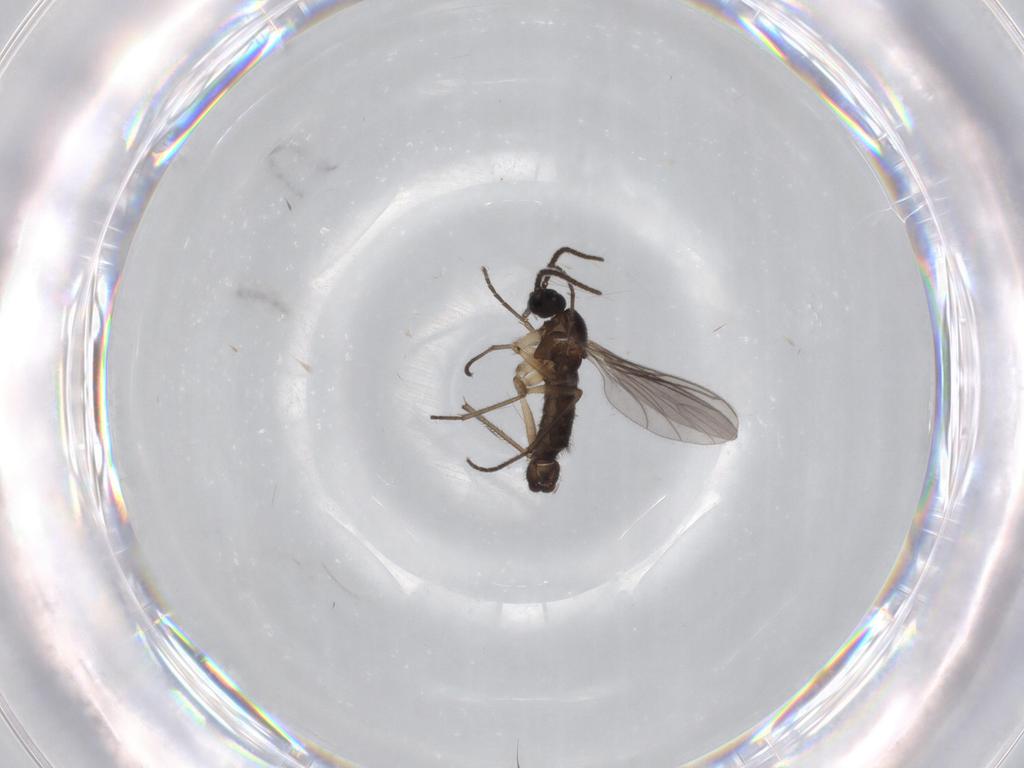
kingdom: Animalia
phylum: Arthropoda
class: Insecta
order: Diptera
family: Sciaridae
